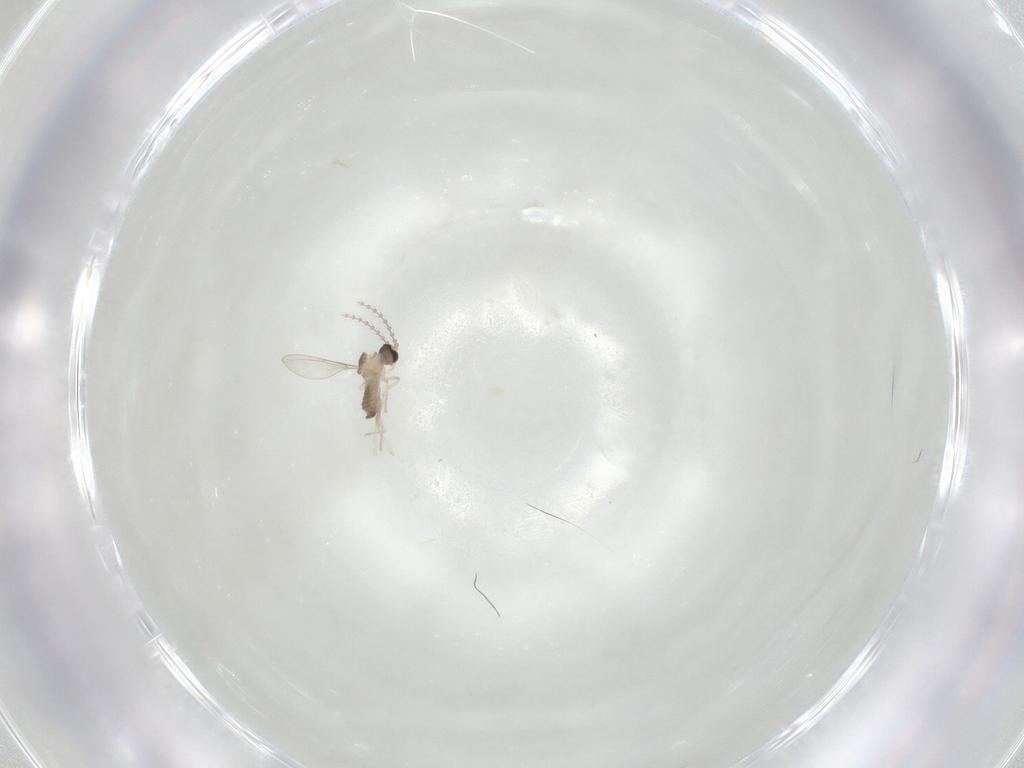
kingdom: Animalia
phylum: Arthropoda
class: Insecta
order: Diptera
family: Cecidomyiidae
